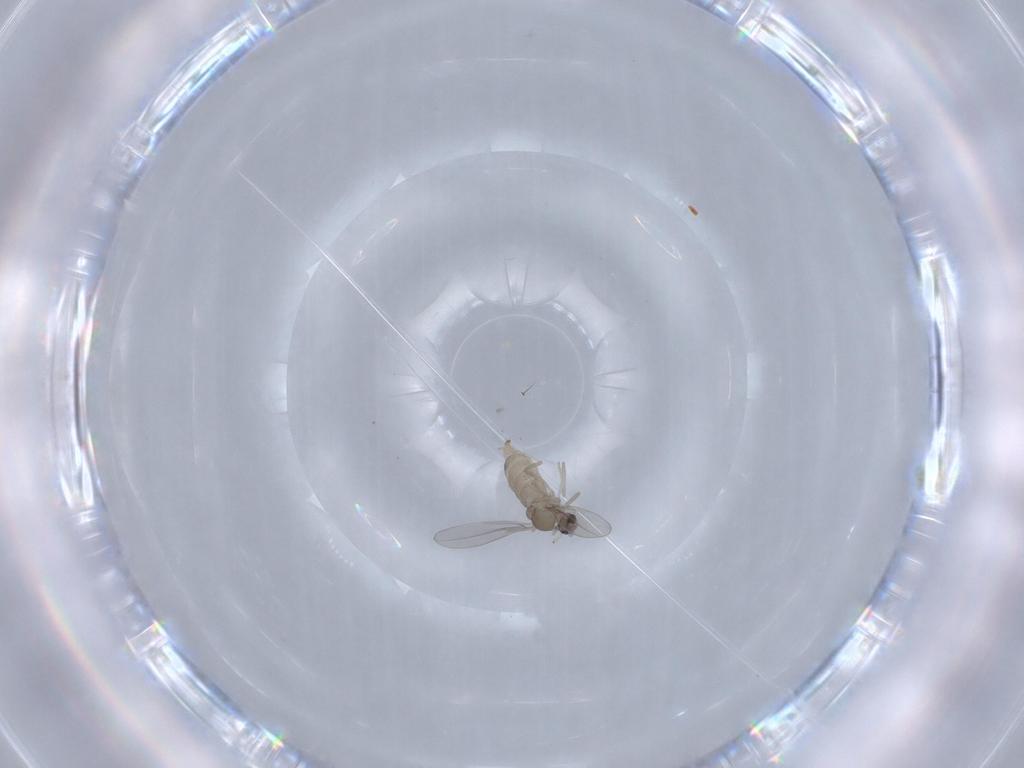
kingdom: Animalia
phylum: Arthropoda
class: Insecta
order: Diptera
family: Cecidomyiidae
